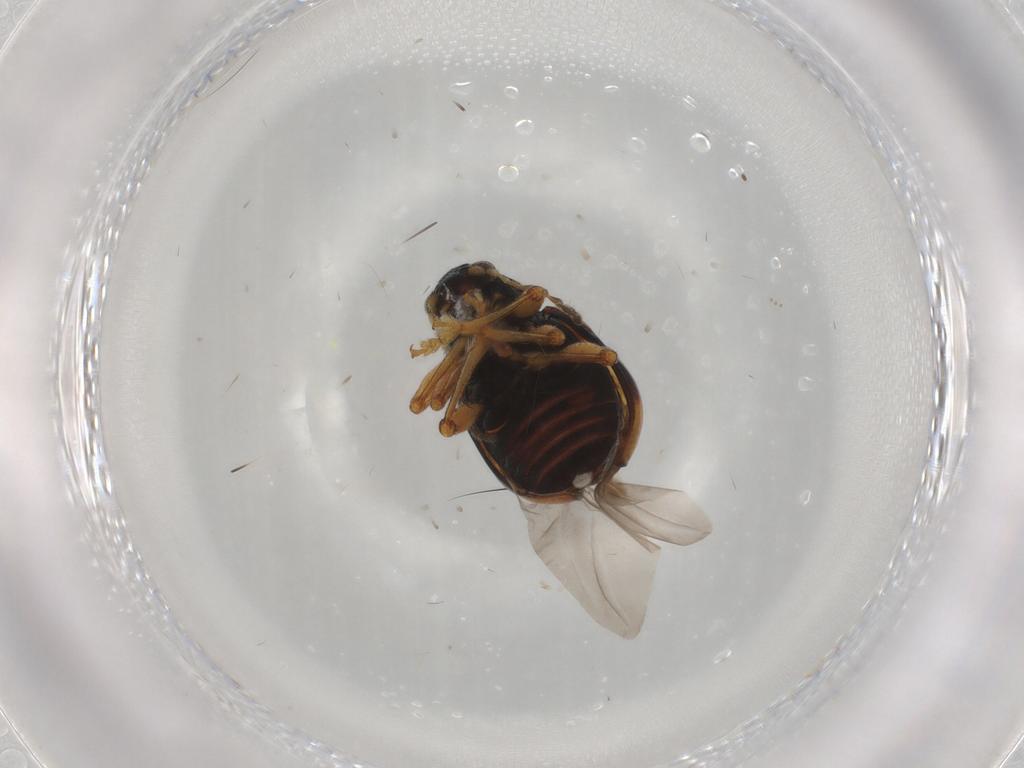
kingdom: Animalia
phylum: Arthropoda
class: Insecta
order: Coleoptera
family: Chrysomelidae
